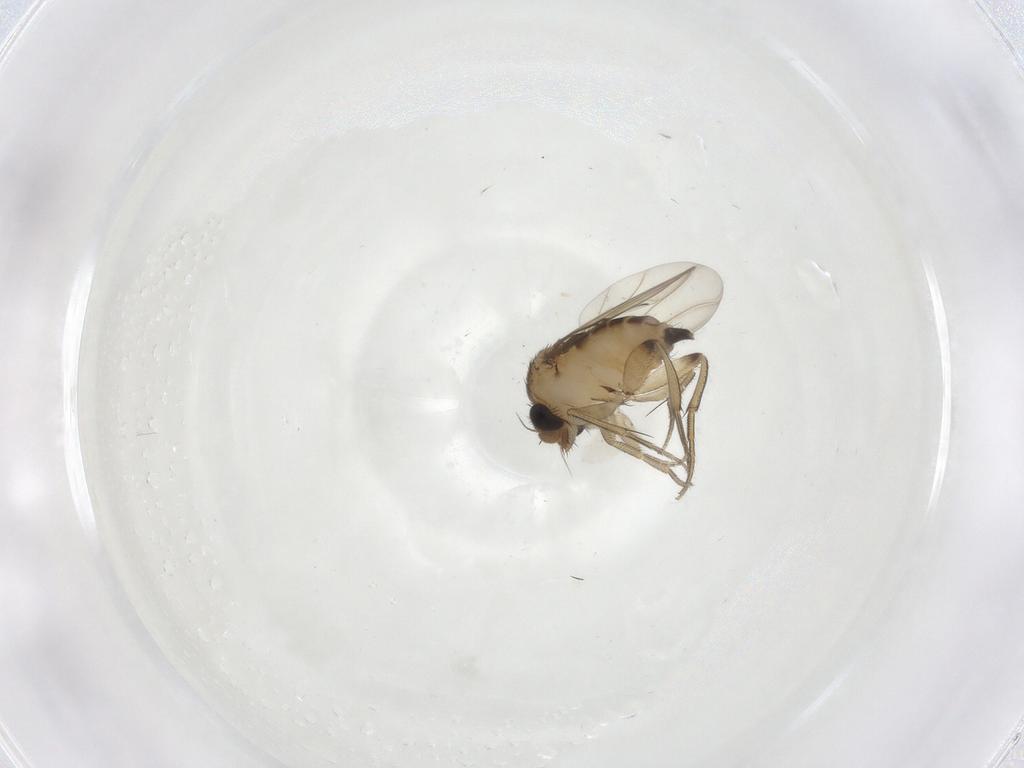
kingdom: Animalia
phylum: Arthropoda
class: Insecta
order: Diptera
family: Phoridae
